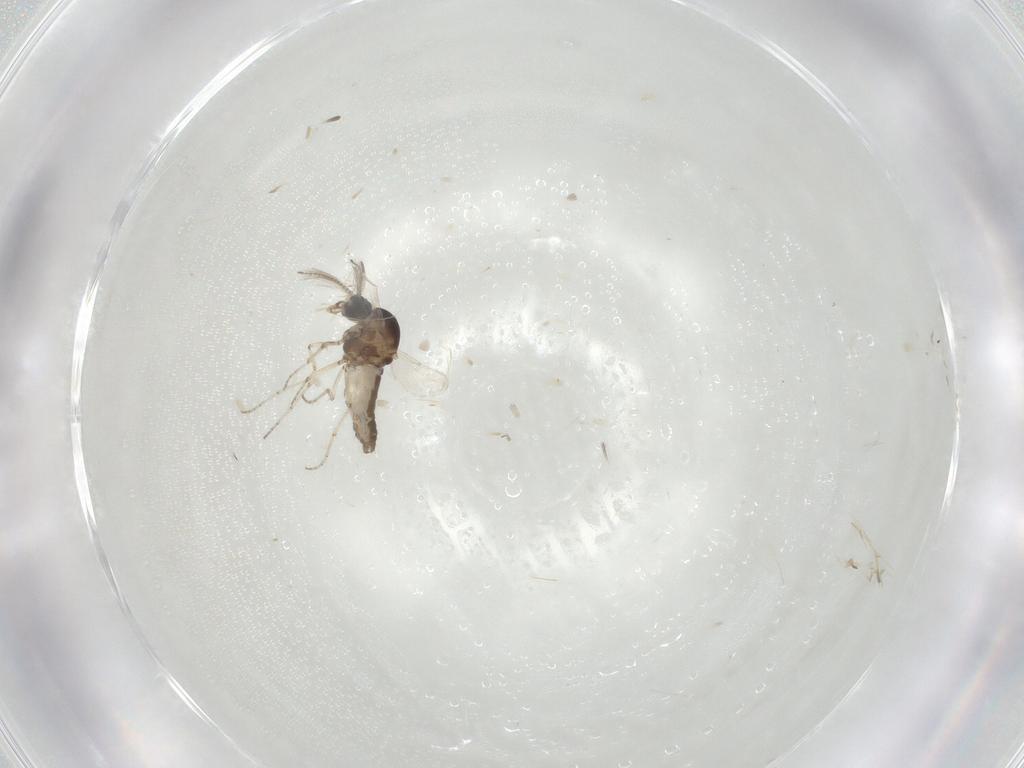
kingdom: Animalia
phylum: Arthropoda
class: Insecta
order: Diptera
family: Ceratopogonidae
